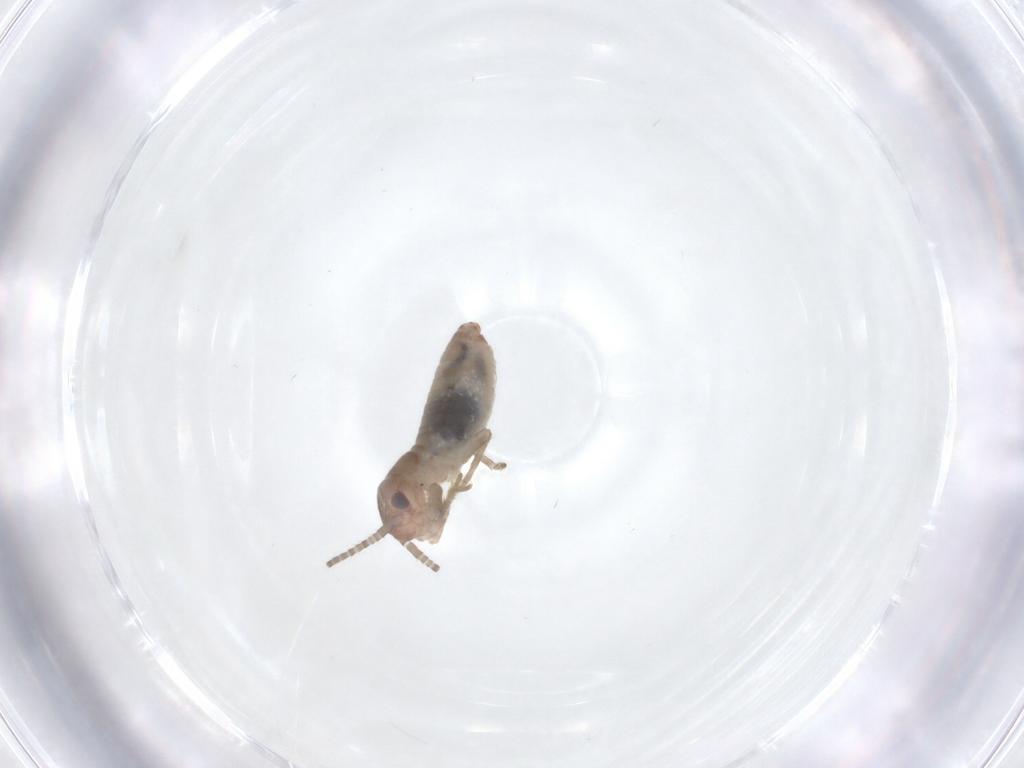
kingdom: Animalia
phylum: Arthropoda
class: Insecta
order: Orthoptera
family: Gryllidae
